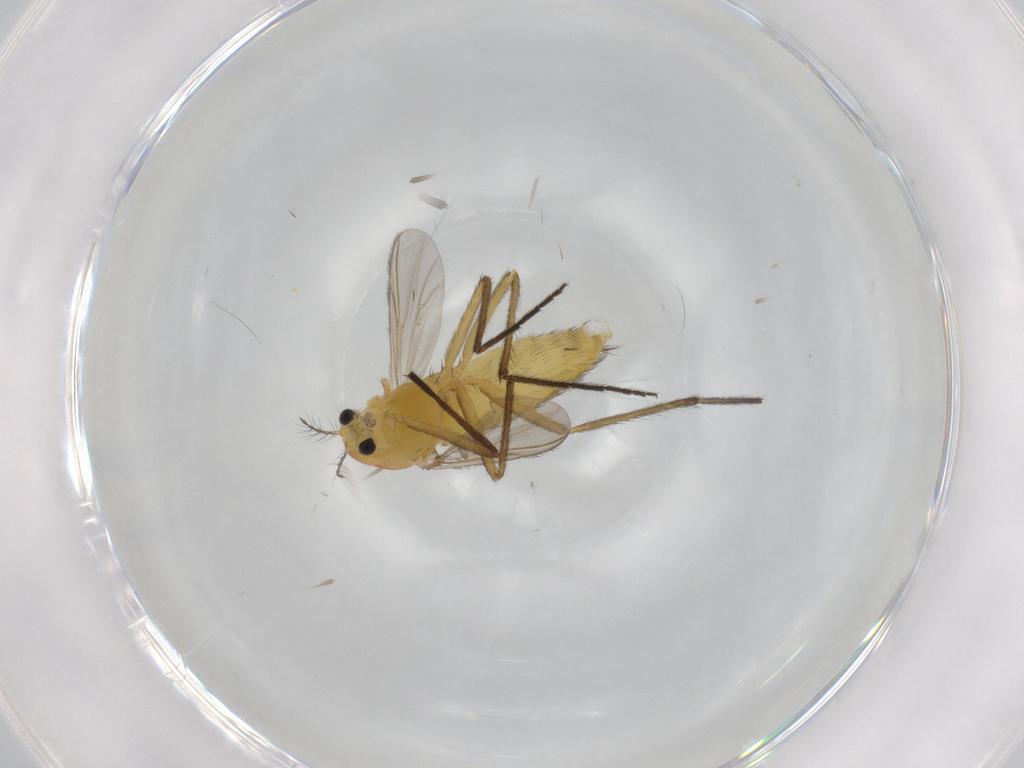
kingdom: Animalia
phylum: Arthropoda
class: Insecta
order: Diptera
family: Chironomidae
